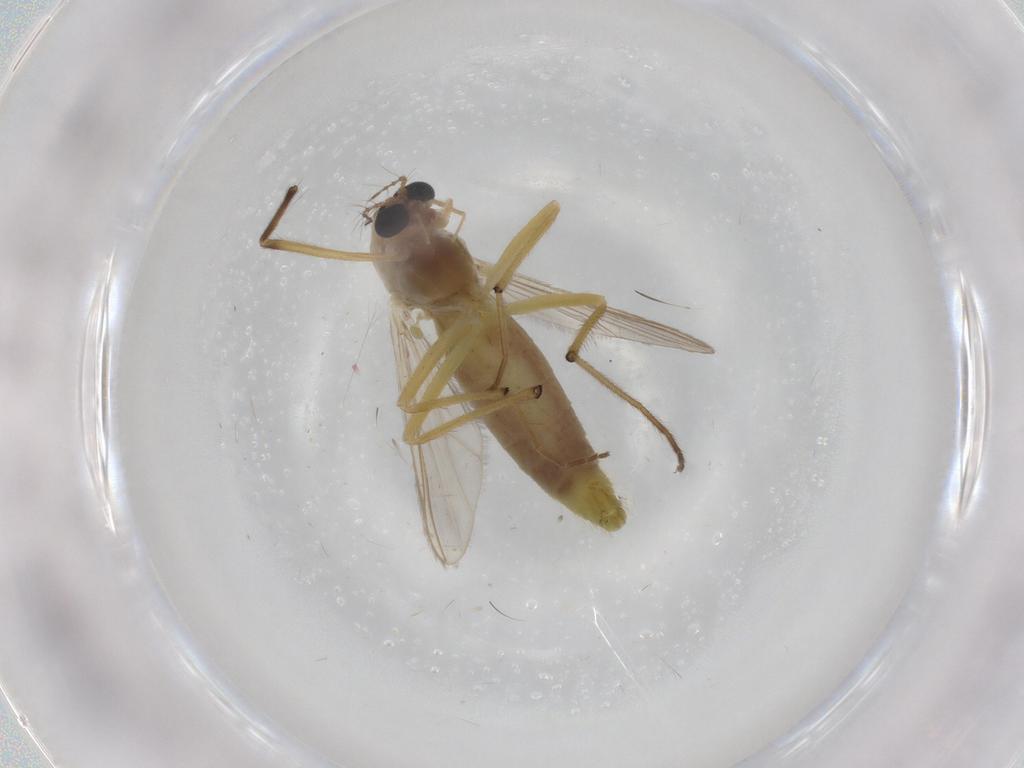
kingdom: Animalia
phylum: Arthropoda
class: Insecta
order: Diptera
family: Chironomidae
